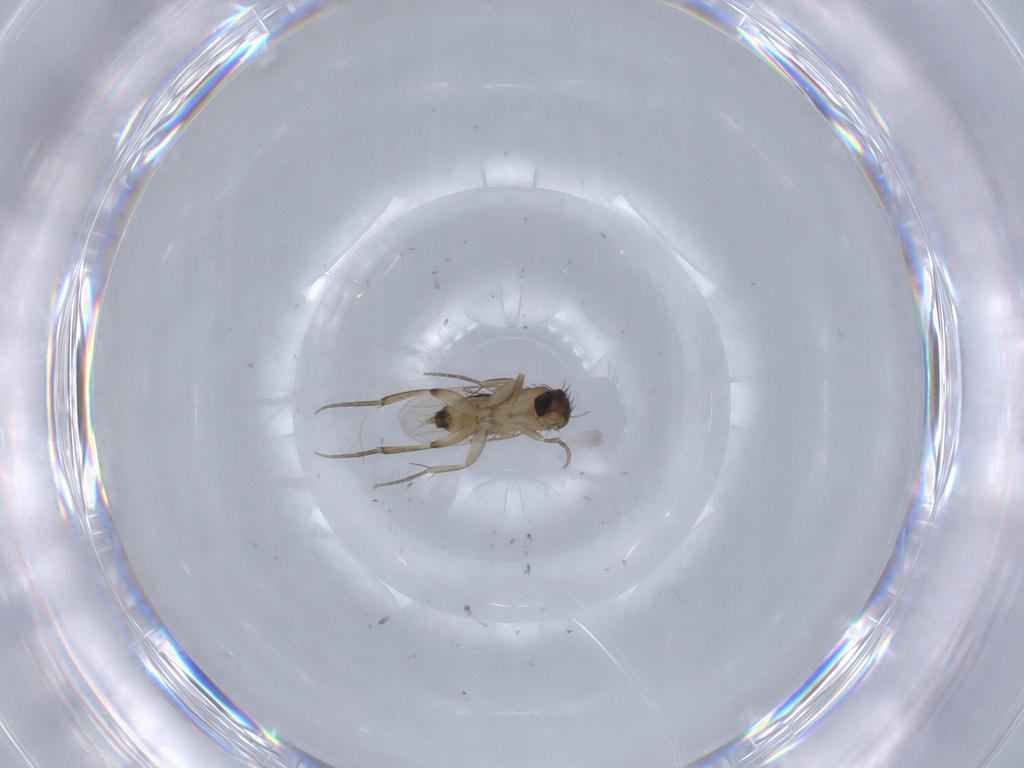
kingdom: Animalia
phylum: Arthropoda
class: Insecta
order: Diptera
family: Phoridae
